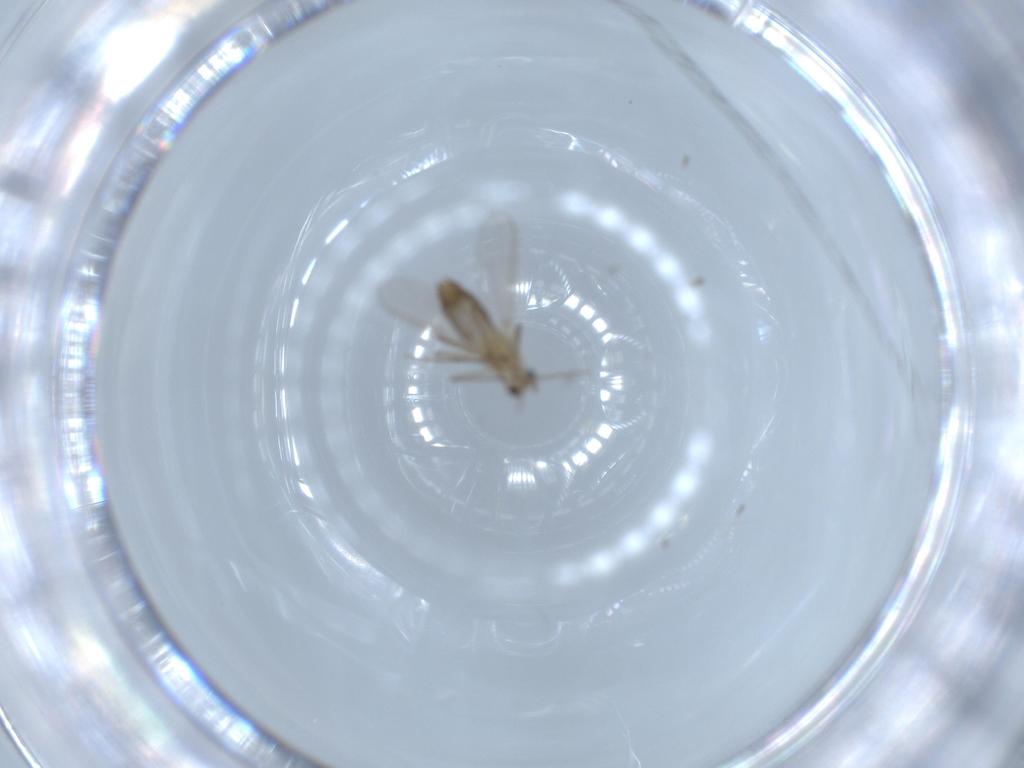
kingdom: Animalia
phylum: Arthropoda
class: Insecta
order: Diptera
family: Chironomidae
